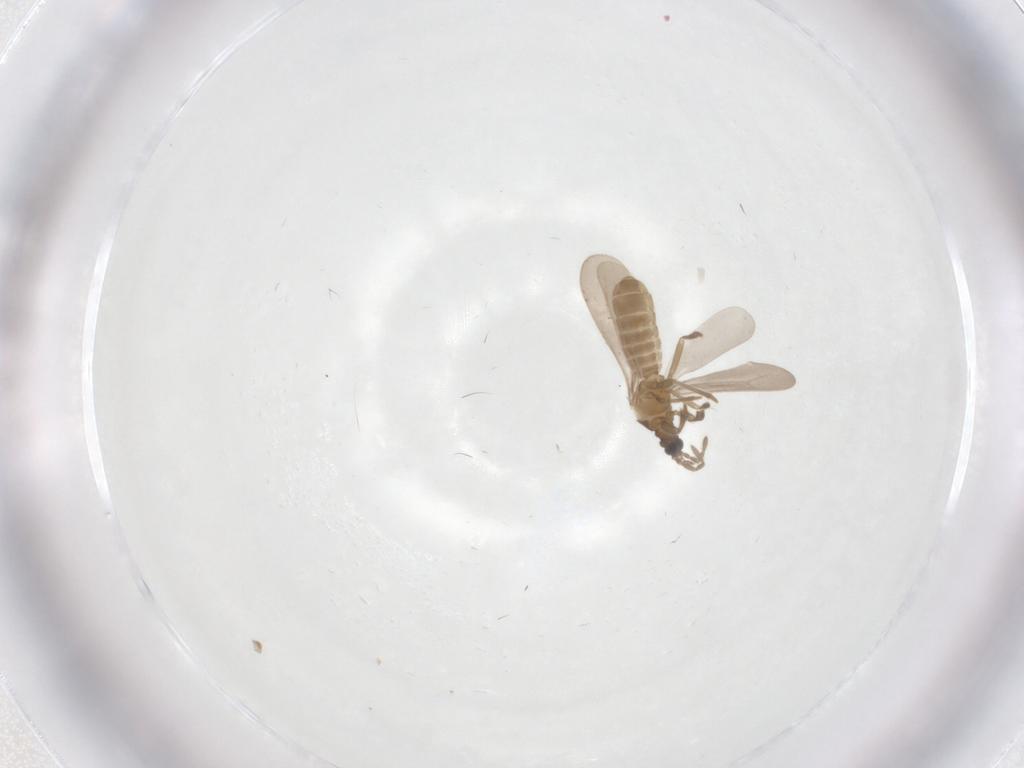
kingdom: Animalia
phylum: Arthropoda
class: Insecta
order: Hemiptera
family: Enicocephalidae
